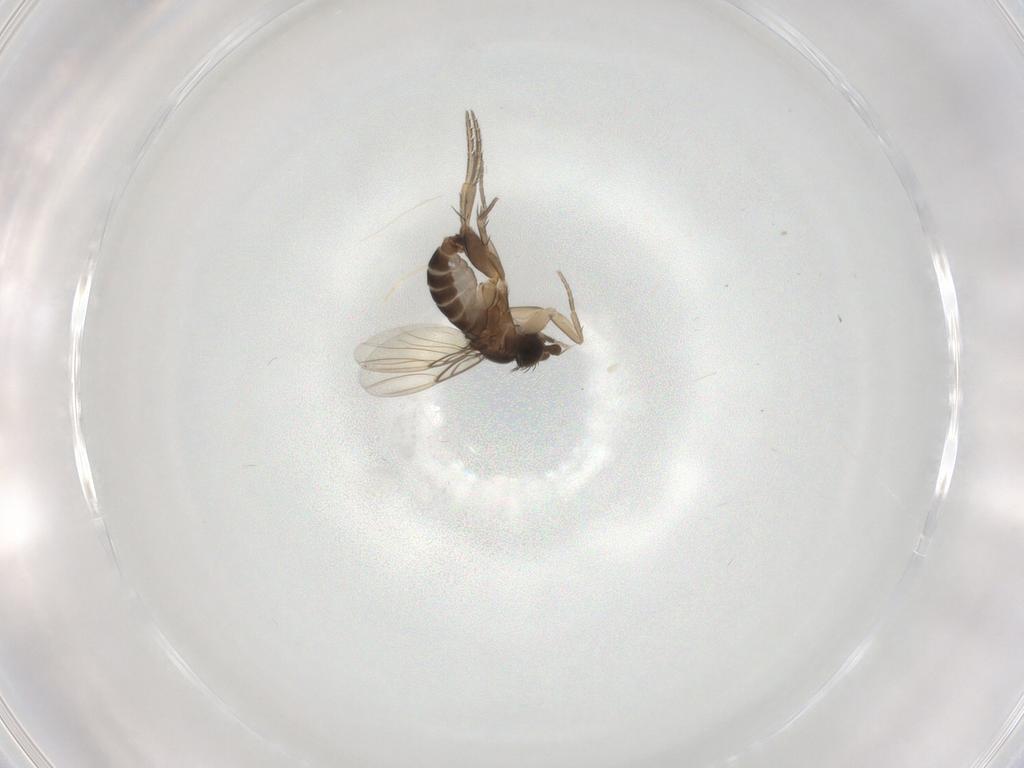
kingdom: Animalia
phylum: Arthropoda
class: Insecta
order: Diptera
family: Phoridae
